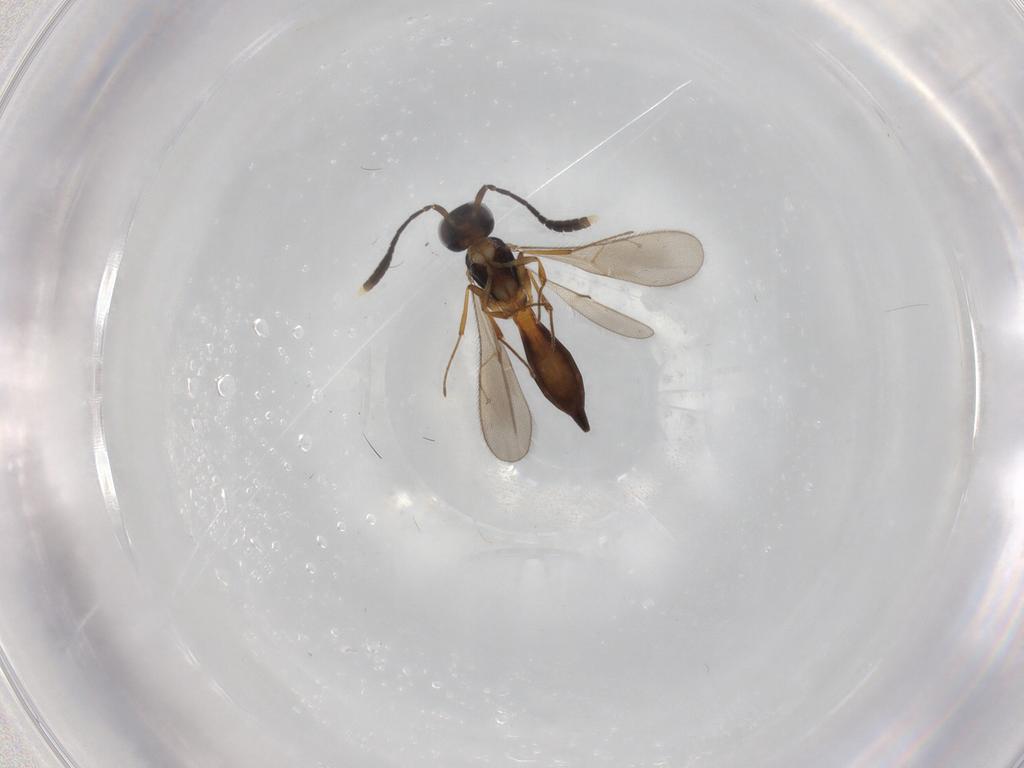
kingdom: Animalia
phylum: Arthropoda
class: Insecta
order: Hymenoptera
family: Scelionidae
